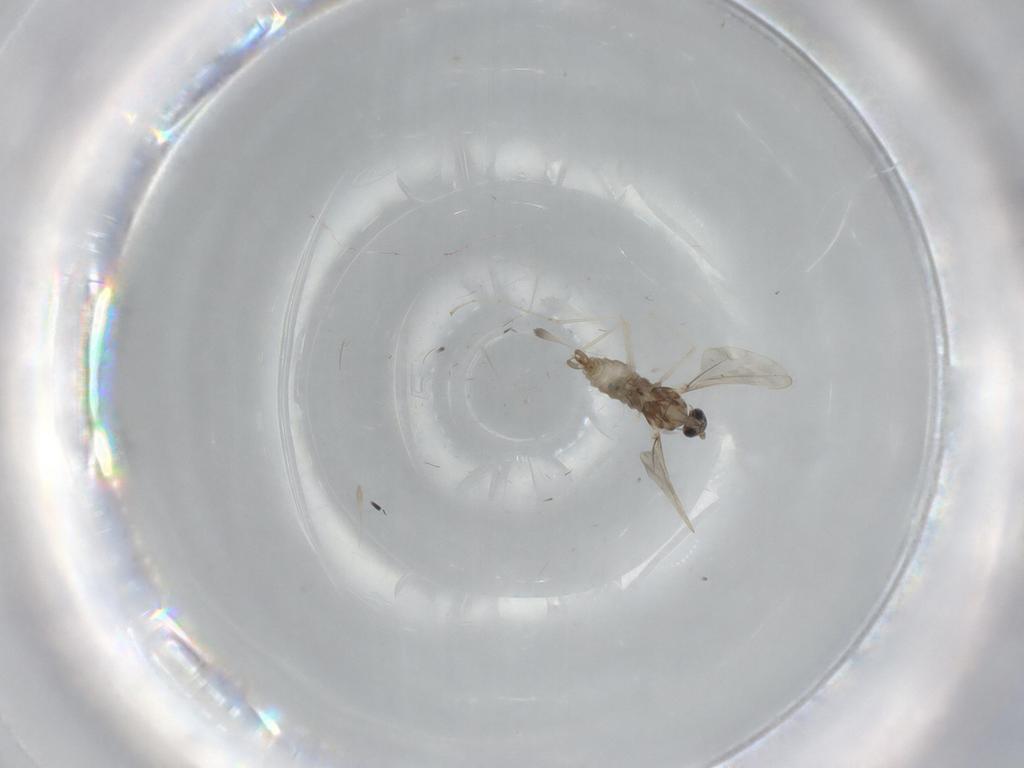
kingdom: Animalia
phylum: Arthropoda
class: Insecta
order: Diptera
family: Cecidomyiidae
